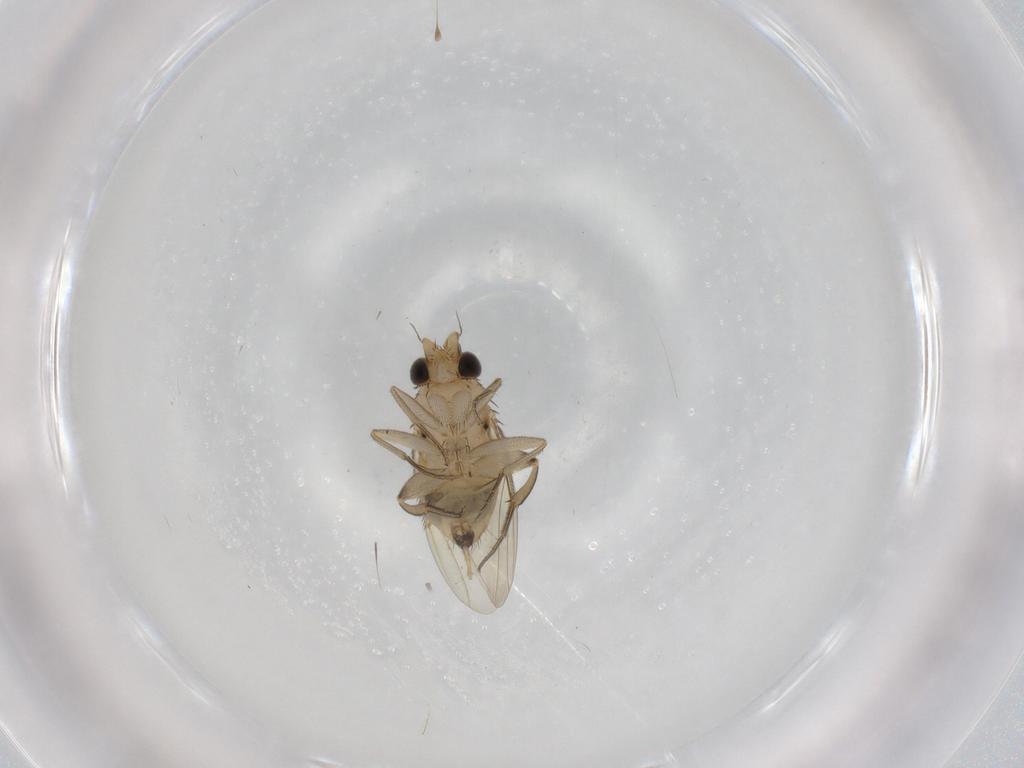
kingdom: Animalia
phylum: Arthropoda
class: Insecta
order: Diptera
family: Phoridae
